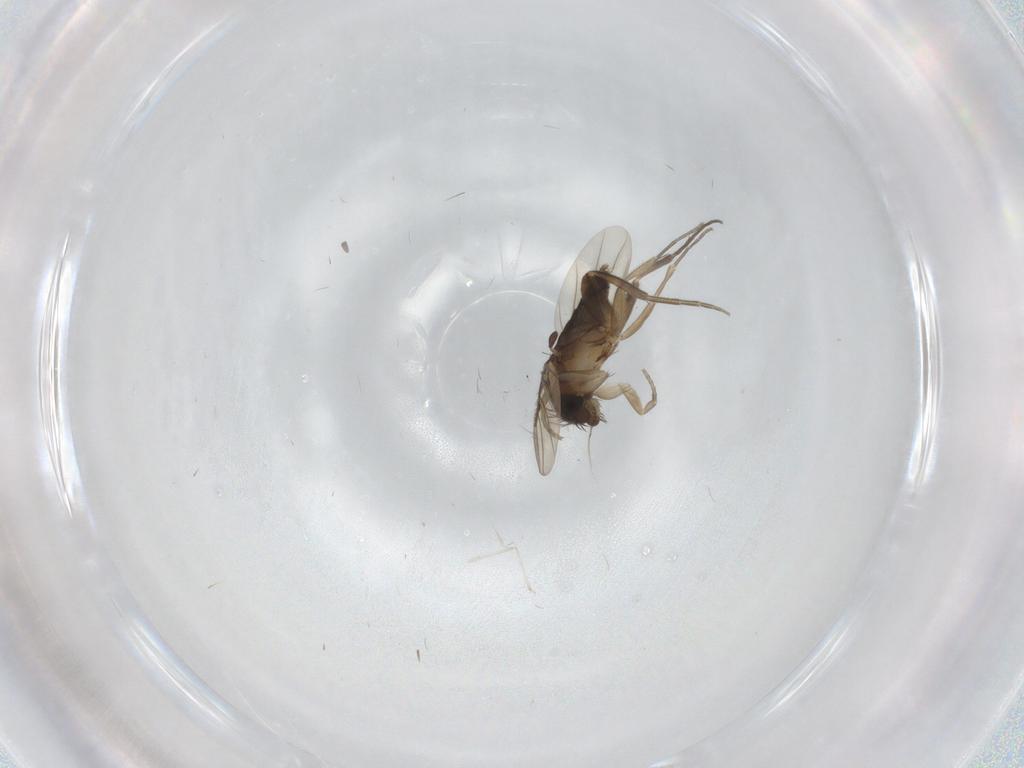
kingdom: Animalia
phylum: Arthropoda
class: Insecta
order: Diptera
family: Phoridae
